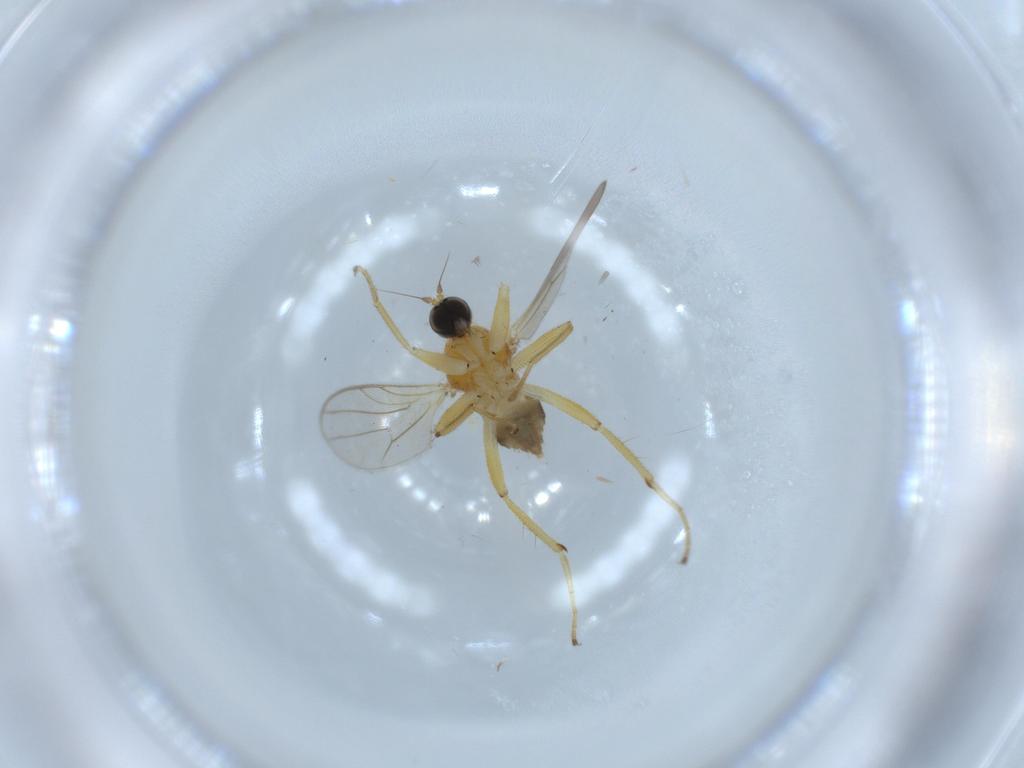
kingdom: Animalia
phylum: Arthropoda
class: Insecta
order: Diptera
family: Hybotidae
